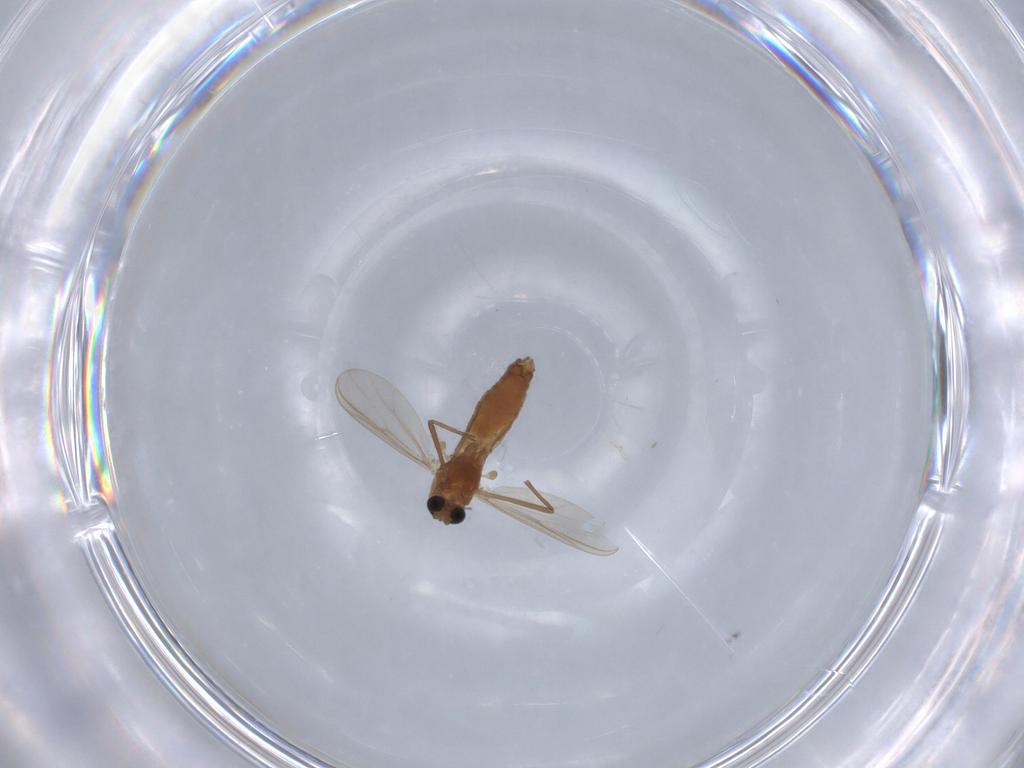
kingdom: Animalia
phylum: Arthropoda
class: Insecta
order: Diptera
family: Chironomidae
